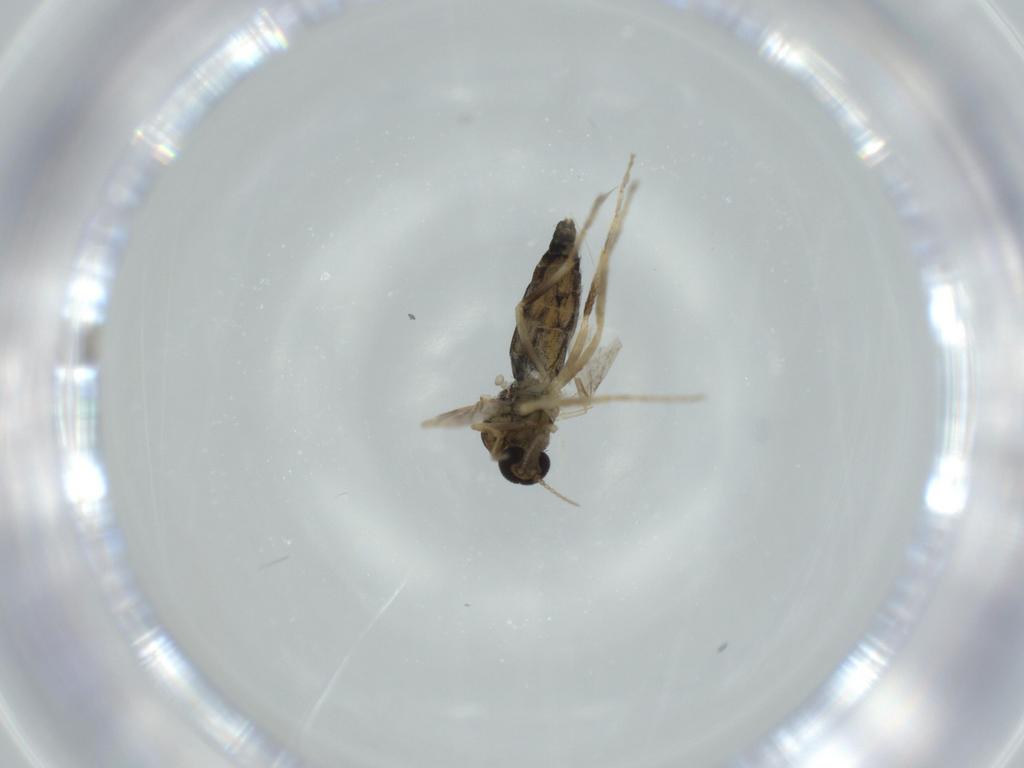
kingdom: Animalia
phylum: Arthropoda
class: Insecta
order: Diptera
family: Ceratopogonidae
